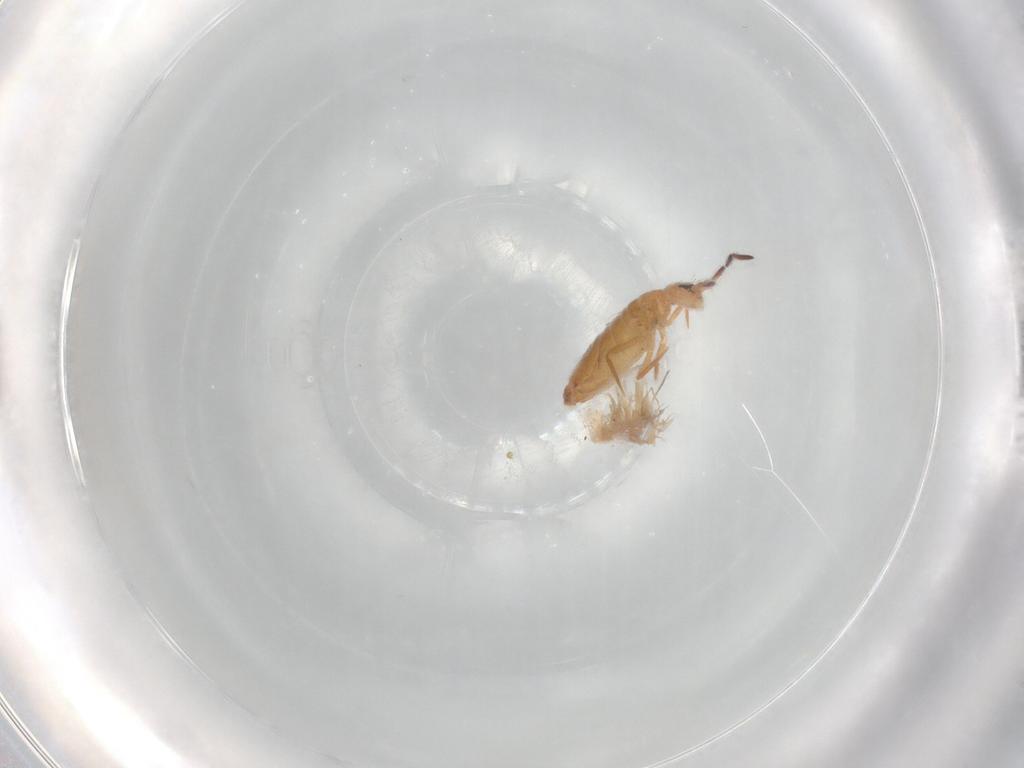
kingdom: Animalia
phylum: Arthropoda
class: Collembola
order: Entomobryomorpha
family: Entomobryidae
